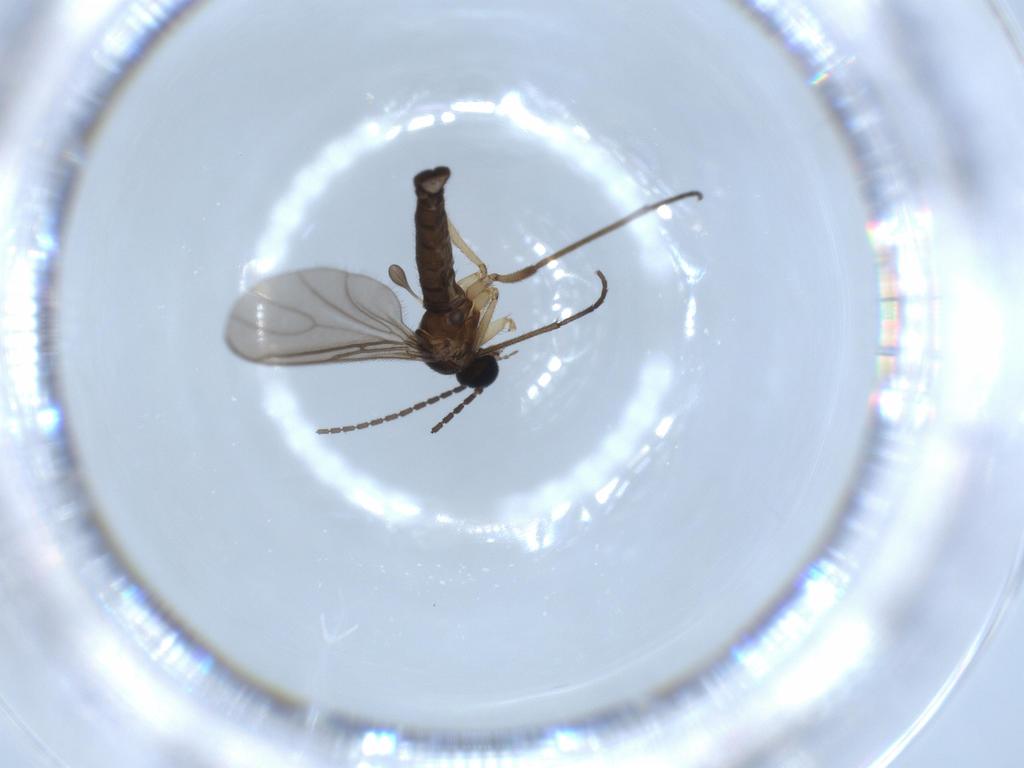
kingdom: Animalia
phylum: Arthropoda
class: Insecta
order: Diptera
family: Sciaridae
